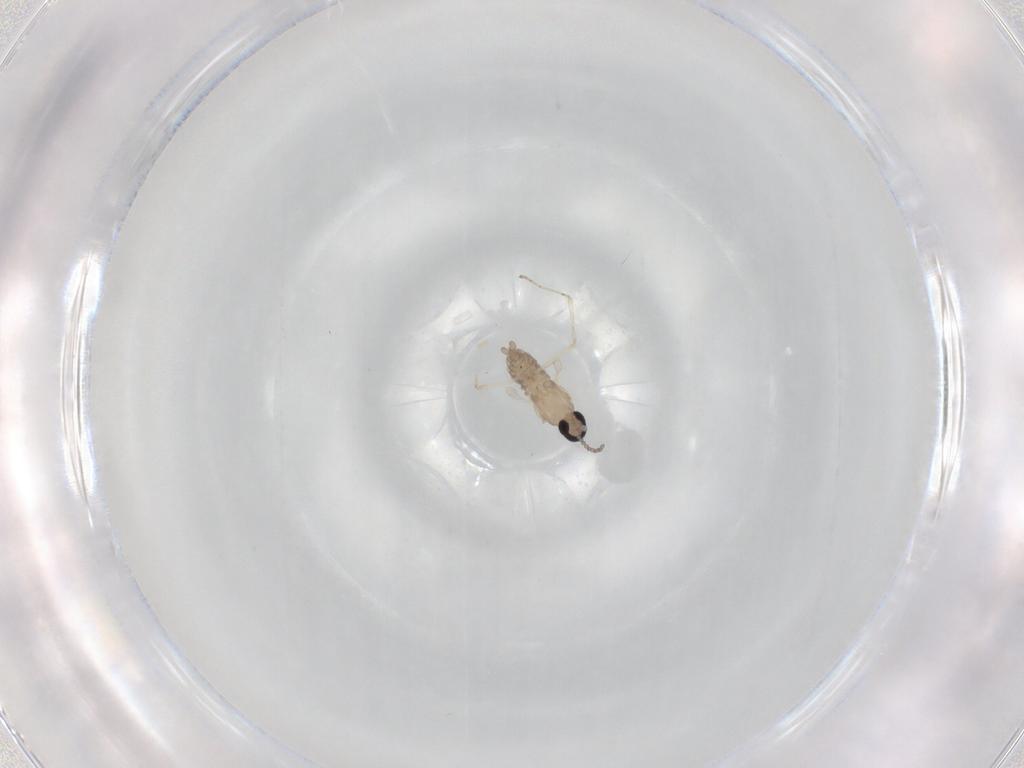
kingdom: Animalia
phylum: Arthropoda
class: Insecta
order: Diptera
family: Cecidomyiidae
